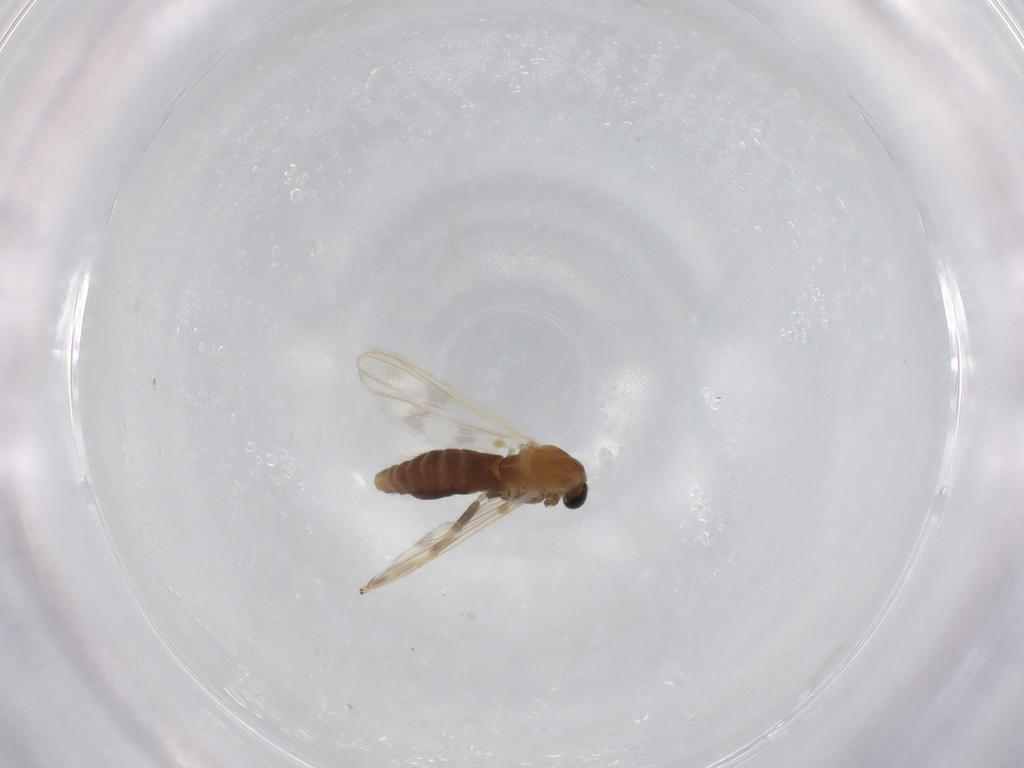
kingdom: Animalia
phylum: Arthropoda
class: Insecta
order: Diptera
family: Chironomidae
